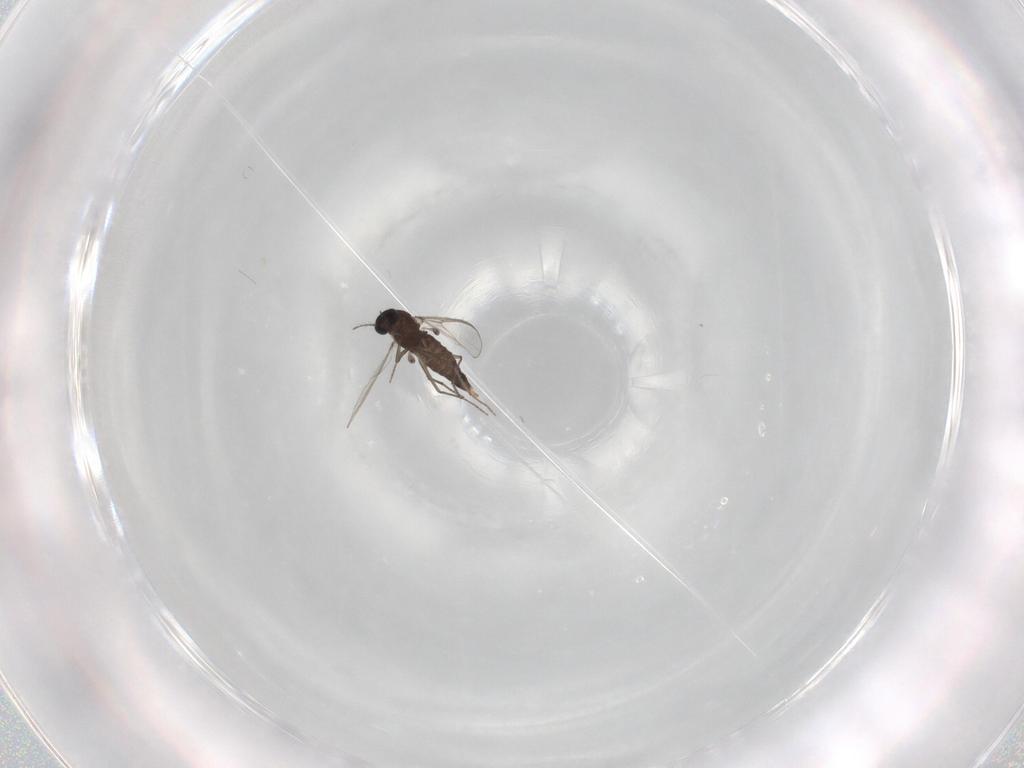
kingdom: Animalia
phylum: Arthropoda
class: Insecta
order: Diptera
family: Chironomidae
